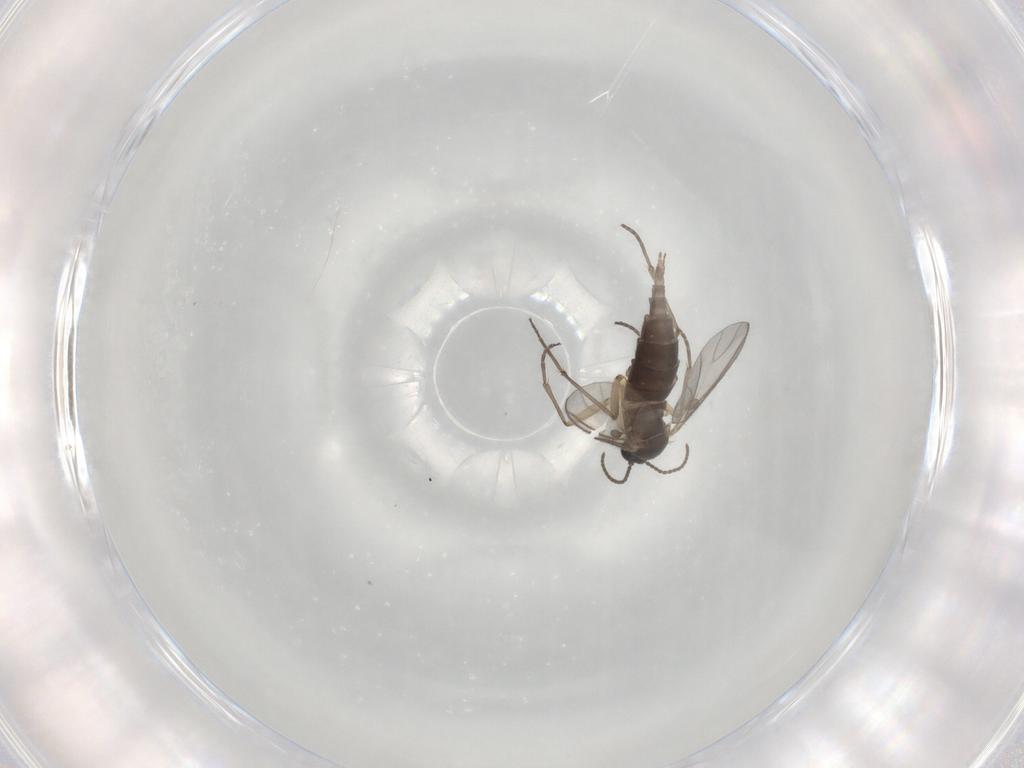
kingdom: Animalia
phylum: Arthropoda
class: Insecta
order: Diptera
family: Sciaridae
